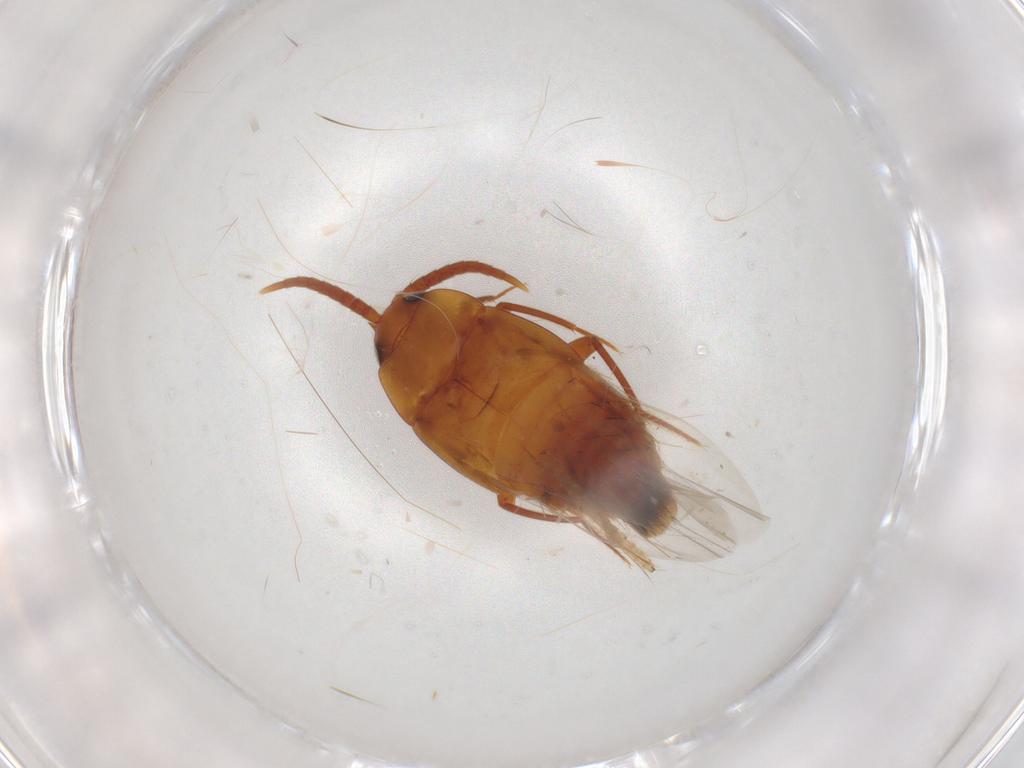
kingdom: Animalia
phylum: Arthropoda
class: Insecta
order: Coleoptera
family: Staphylinidae
